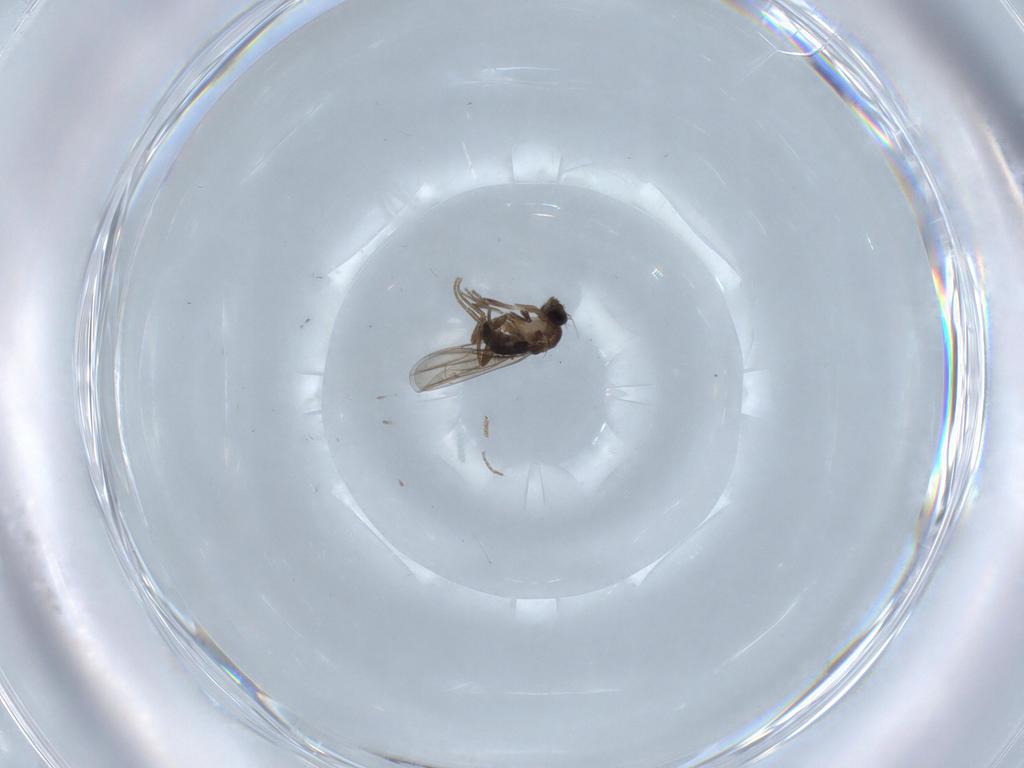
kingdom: Animalia
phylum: Arthropoda
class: Insecta
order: Diptera
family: Phoridae
